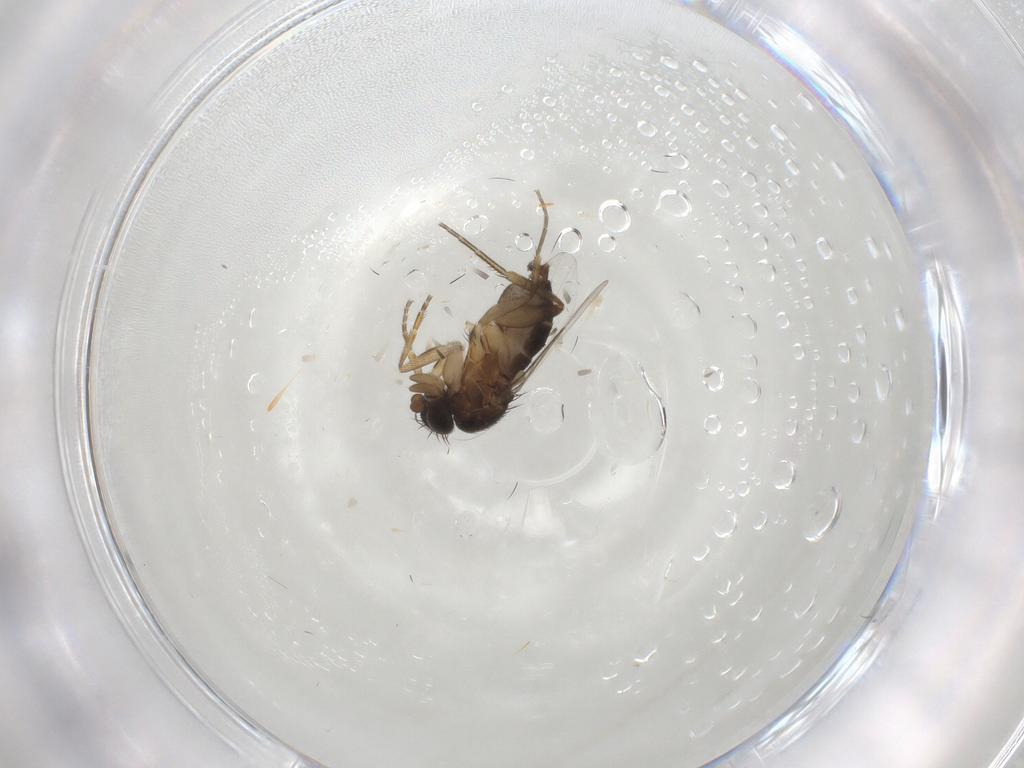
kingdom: Animalia
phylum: Arthropoda
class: Insecta
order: Diptera
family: Phoridae
